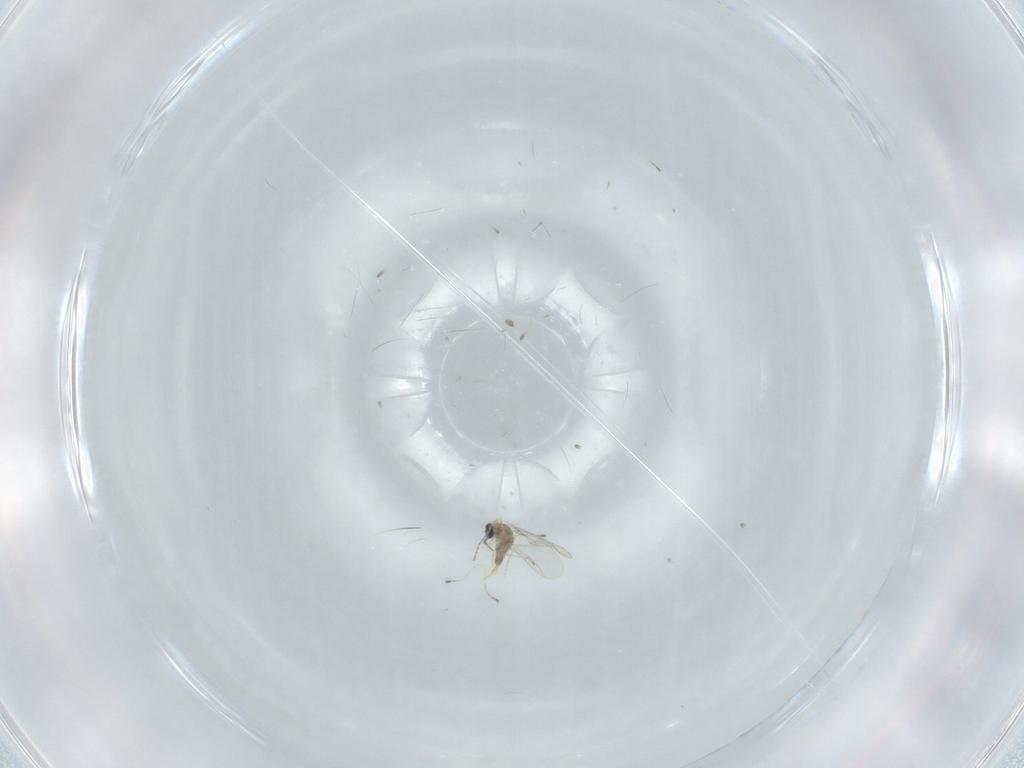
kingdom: Animalia
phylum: Arthropoda
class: Insecta
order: Diptera
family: Cecidomyiidae
